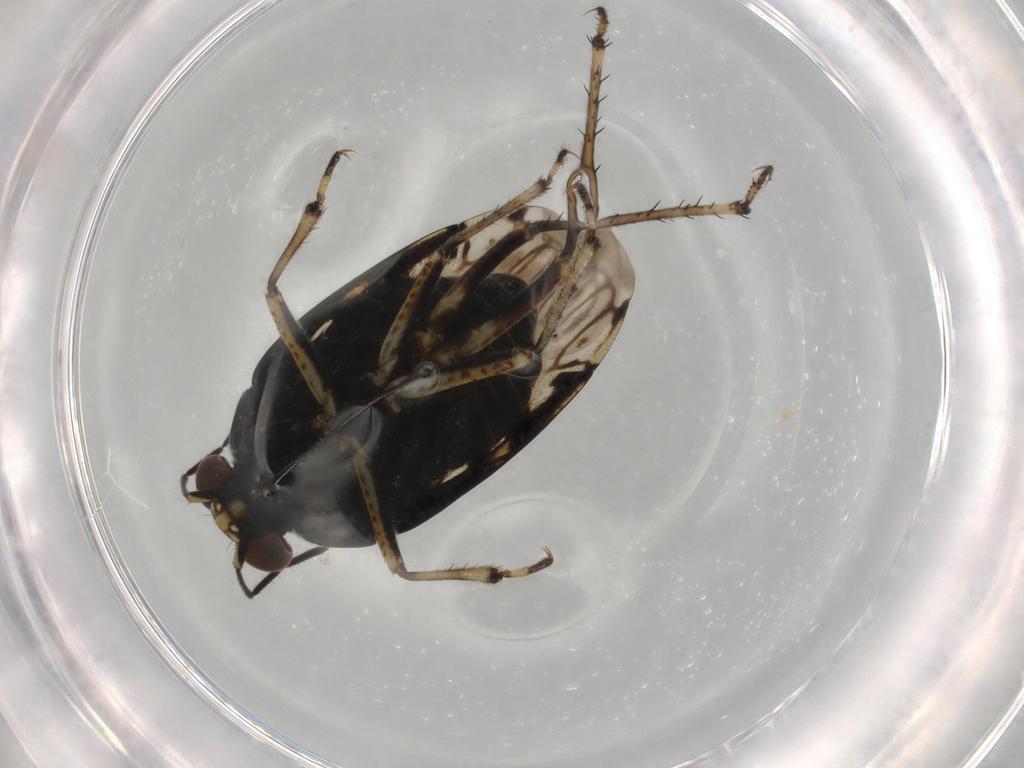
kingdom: Animalia
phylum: Arthropoda
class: Insecta
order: Hemiptera
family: Saldidae
